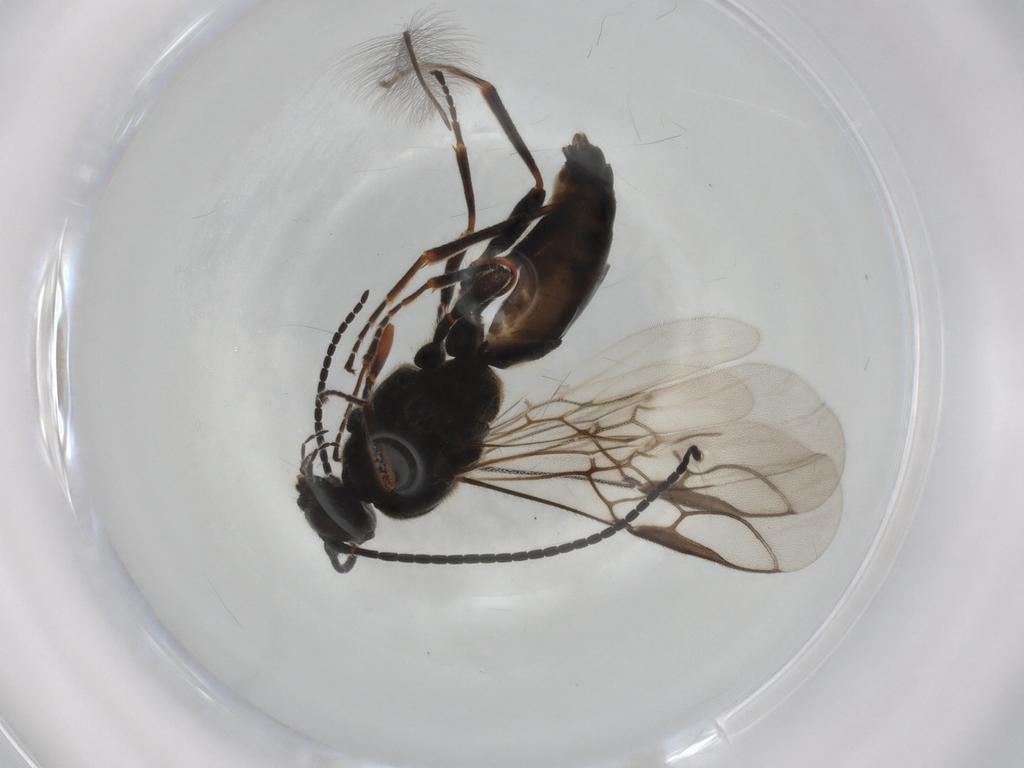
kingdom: Animalia
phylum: Arthropoda
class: Insecta
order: Hymenoptera
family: Braconidae
